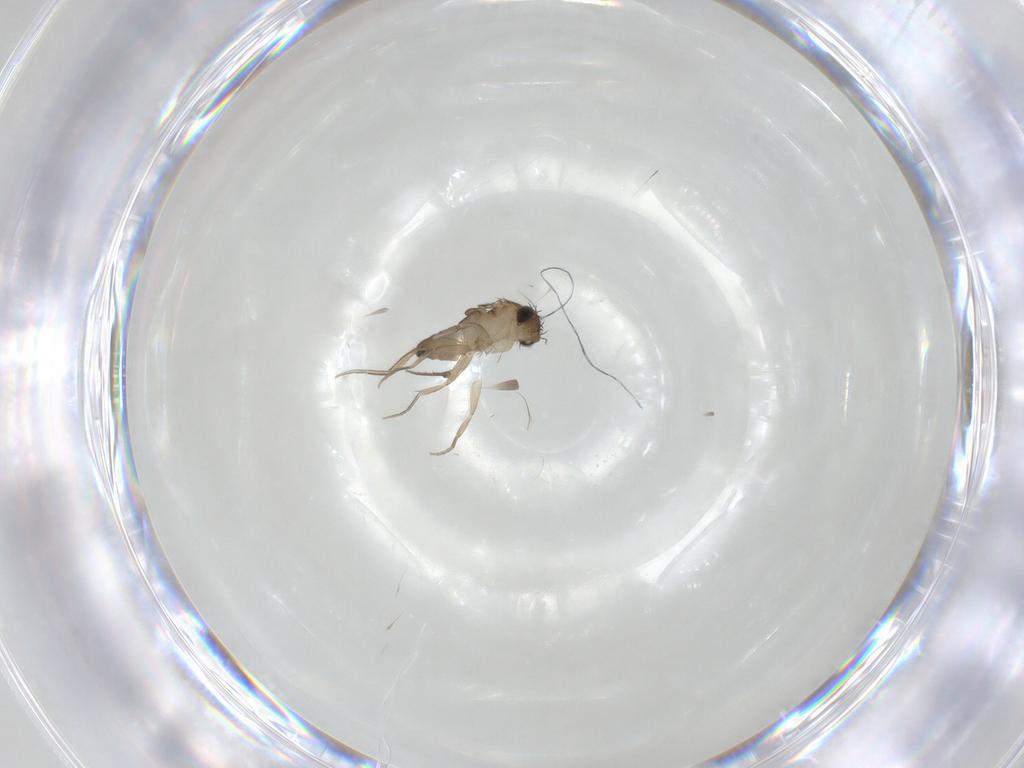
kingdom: Animalia
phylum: Arthropoda
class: Insecta
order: Diptera
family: Phoridae
